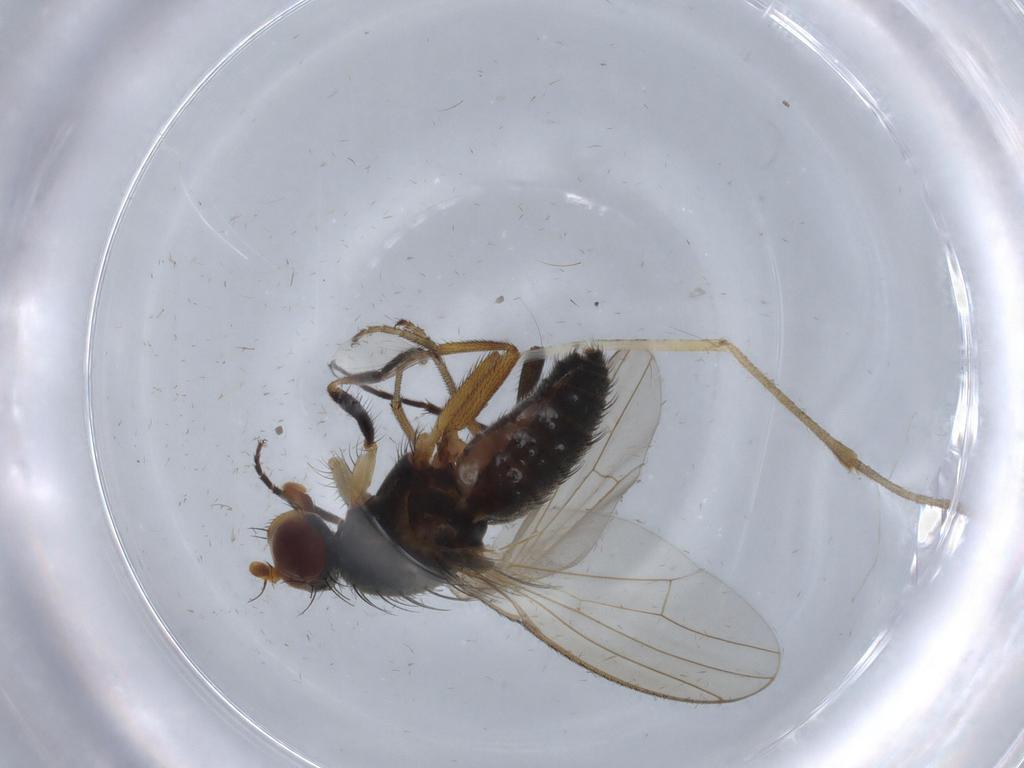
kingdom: Animalia
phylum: Arthropoda
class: Insecta
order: Diptera
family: Heleomyzidae
